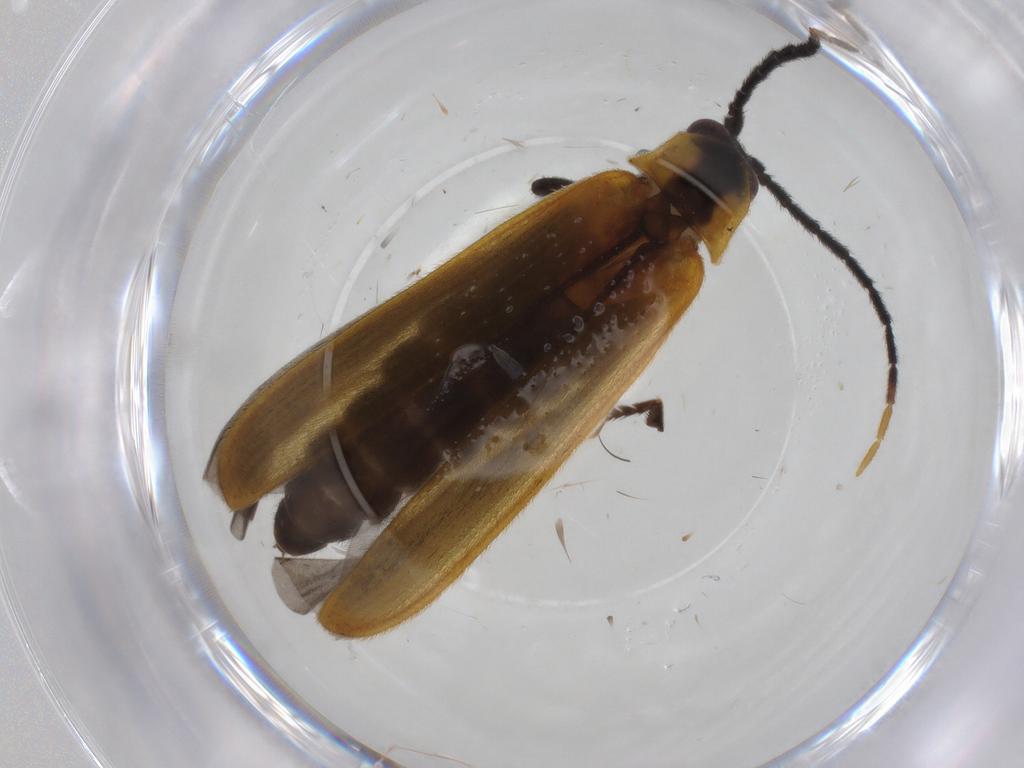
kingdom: Animalia
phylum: Arthropoda
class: Insecta
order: Coleoptera
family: Lycidae
